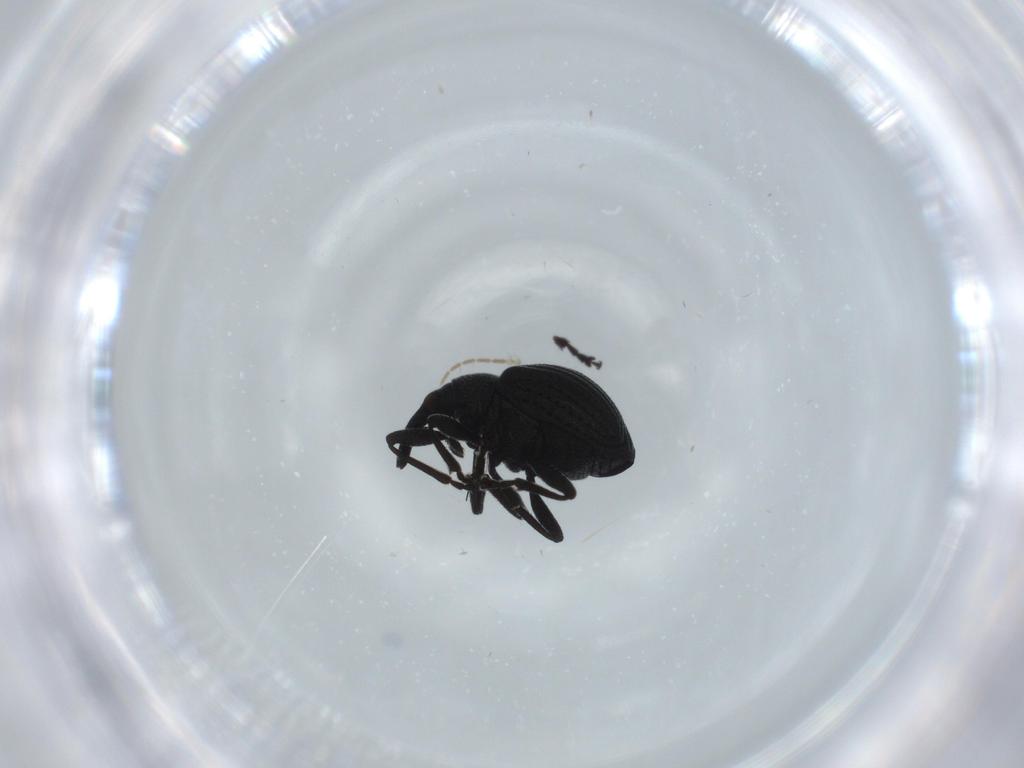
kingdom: Animalia
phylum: Arthropoda
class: Insecta
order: Coleoptera
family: Brentidae
